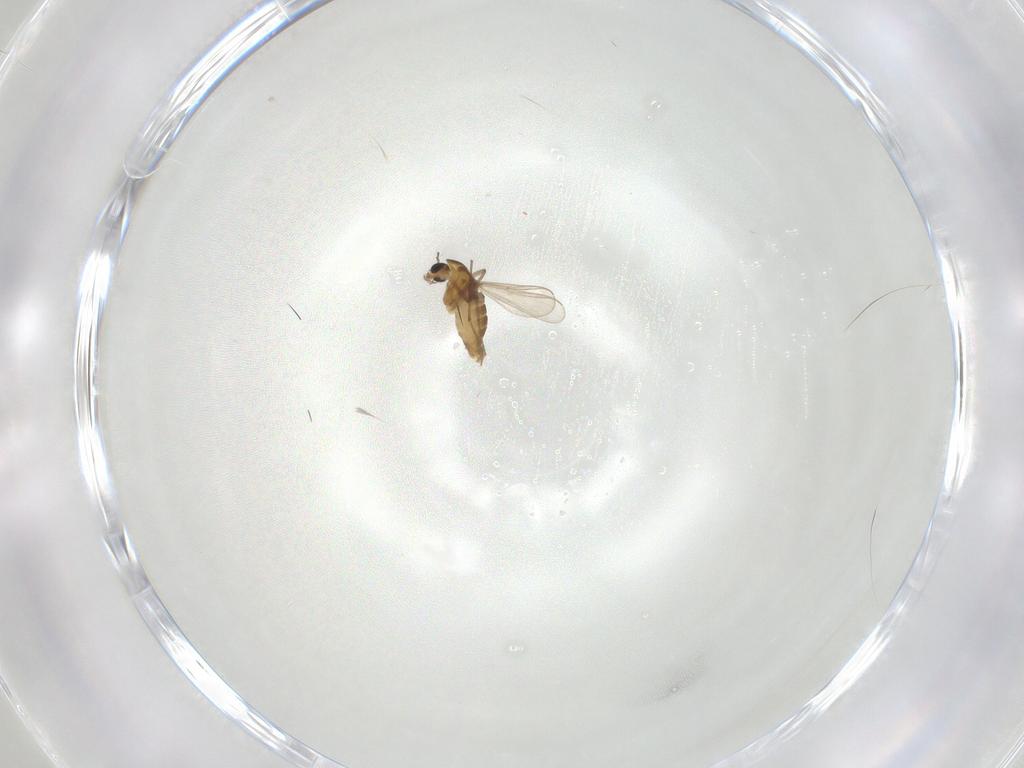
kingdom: Animalia
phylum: Arthropoda
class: Insecta
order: Diptera
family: Chironomidae
